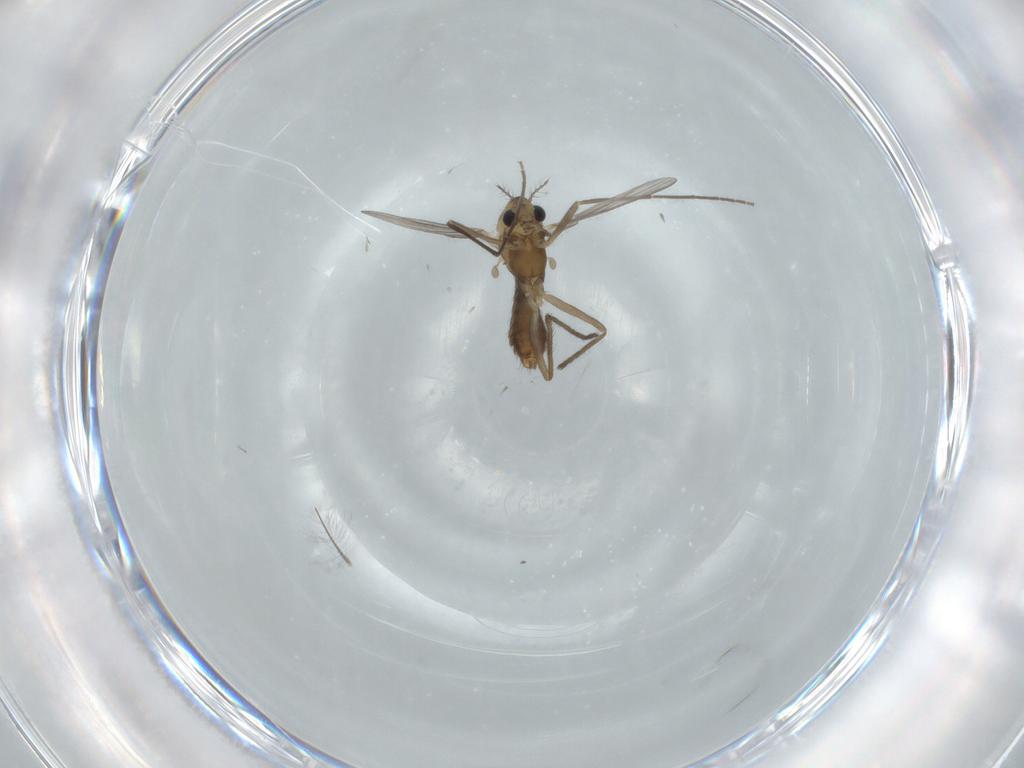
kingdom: Animalia
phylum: Arthropoda
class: Insecta
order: Diptera
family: Chironomidae
